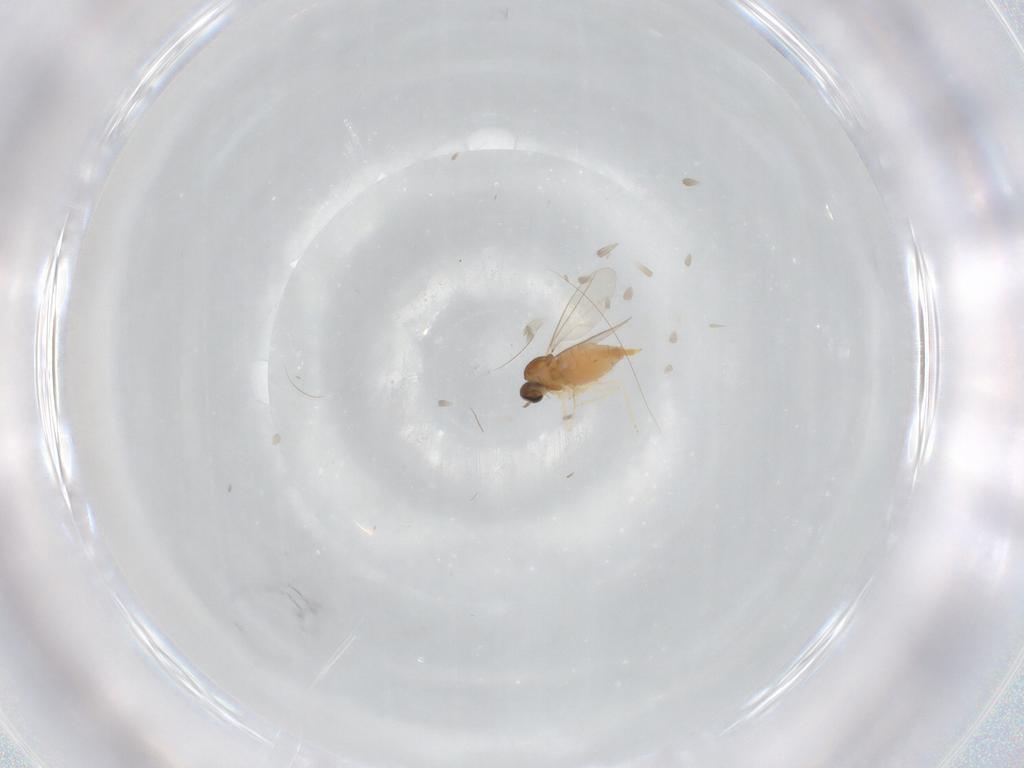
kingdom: Animalia
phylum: Arthropoda
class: Insecta
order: Diptera
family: Cecidomyiidae
